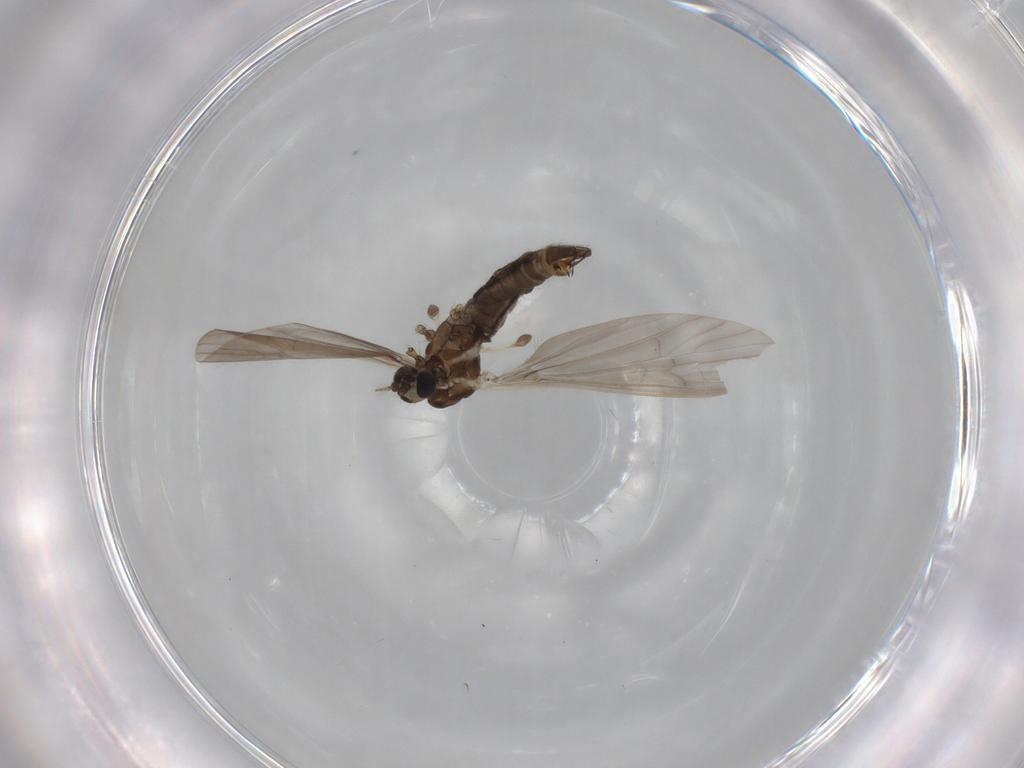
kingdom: Animalia
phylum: Arthropoda
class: Insecta
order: Diptera
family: Limoniidae
